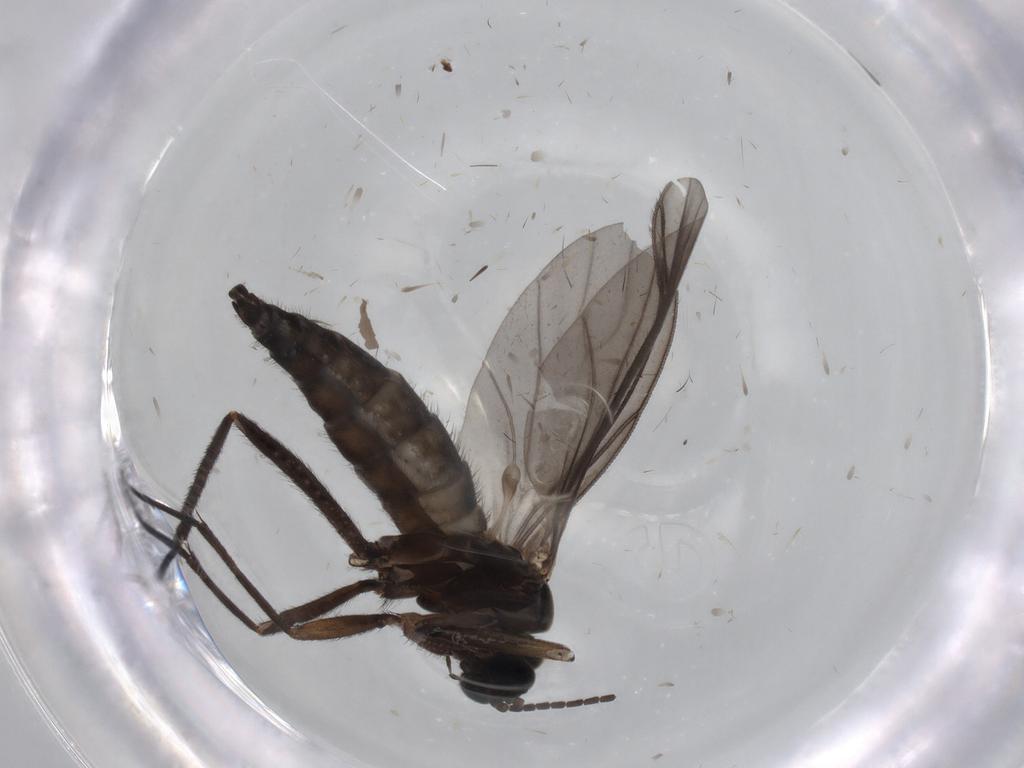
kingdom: Animalia
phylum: Arthropoda
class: Insecta
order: Diptera
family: Sciaridae
